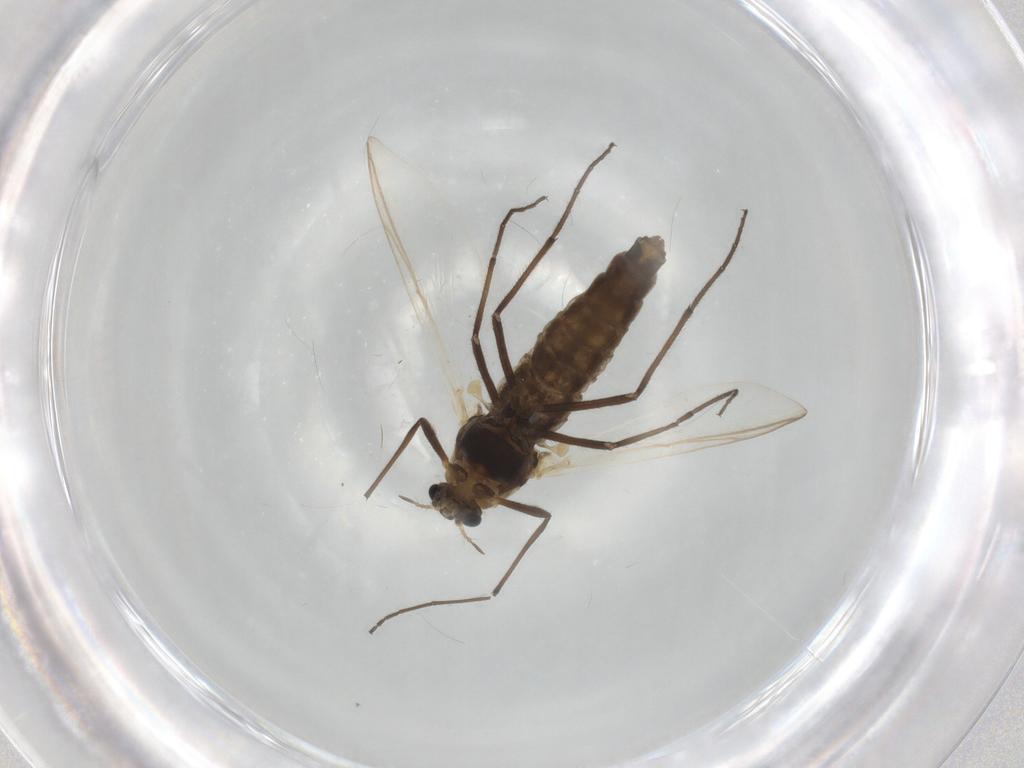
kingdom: Animalia
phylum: Arthropoda
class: Insecta
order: Diptera
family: Chironomidae
